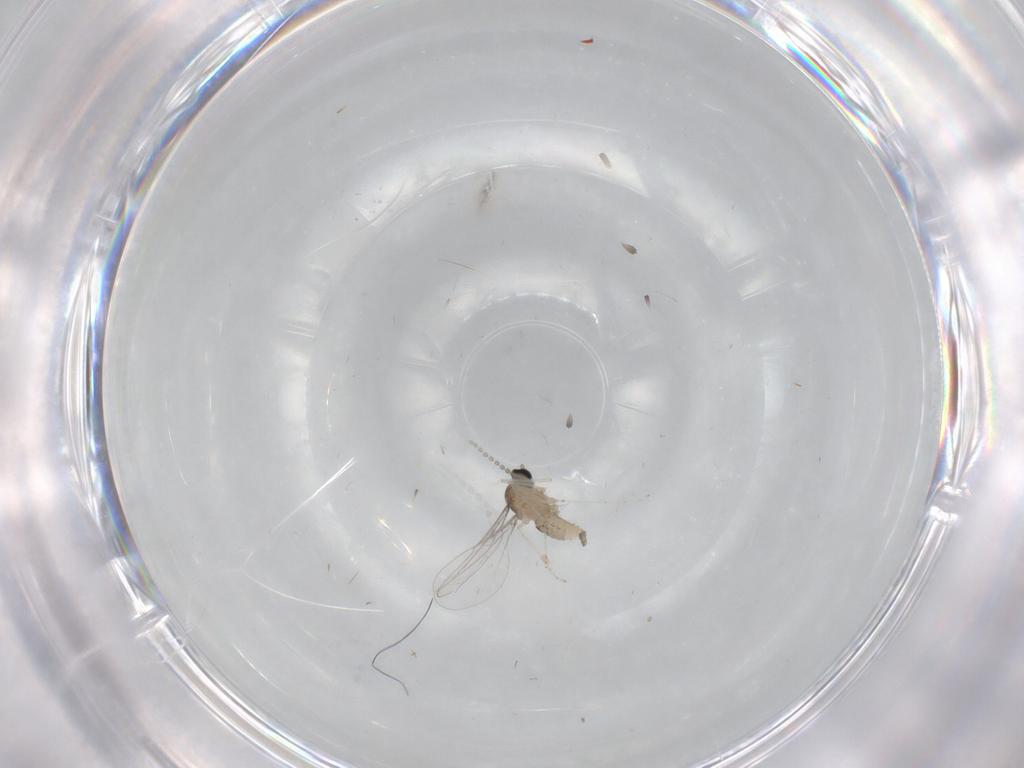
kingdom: Animalia
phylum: Arthropoda
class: Insecta
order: Diptera
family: Cecidomyiidae
